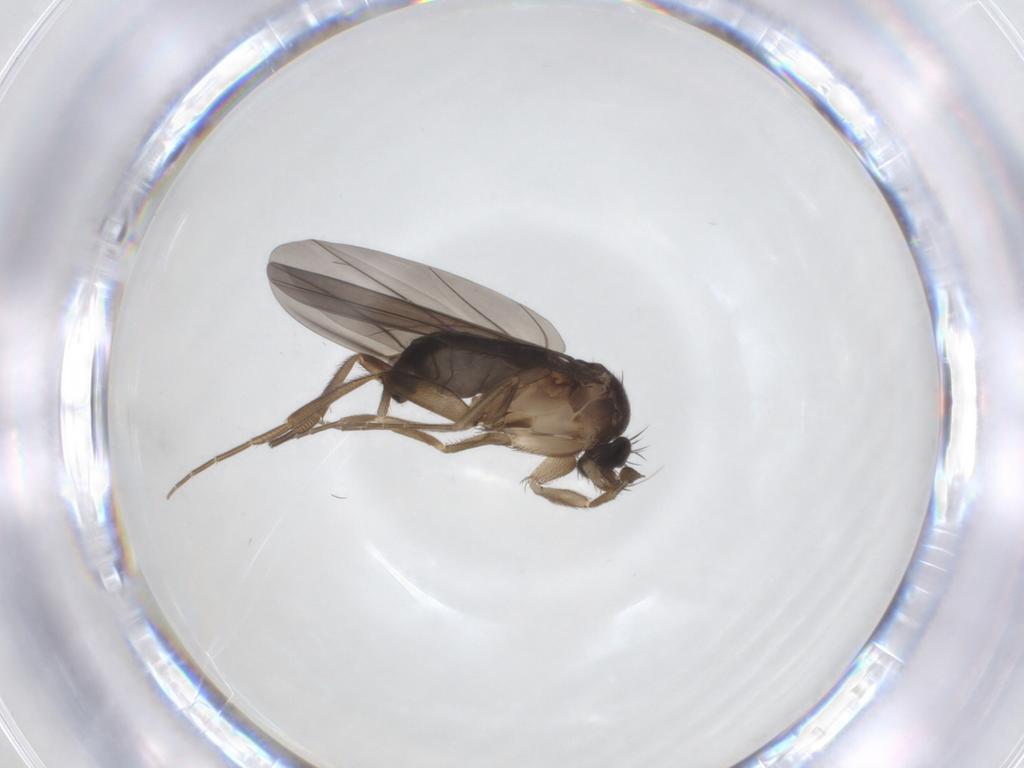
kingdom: Animalia
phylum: Arthropoda
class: Insecta
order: Diptera
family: Phoridae
